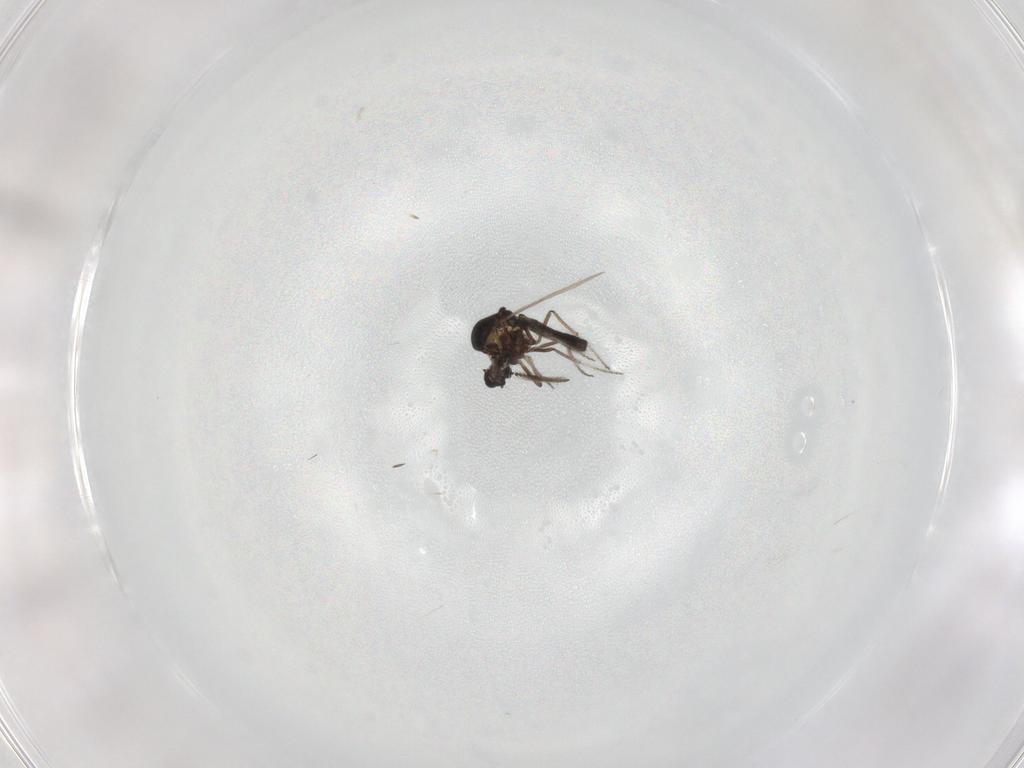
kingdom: Animalia
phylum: Arthropoda
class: Insecta
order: Diptera
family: Ceratopogonidae
